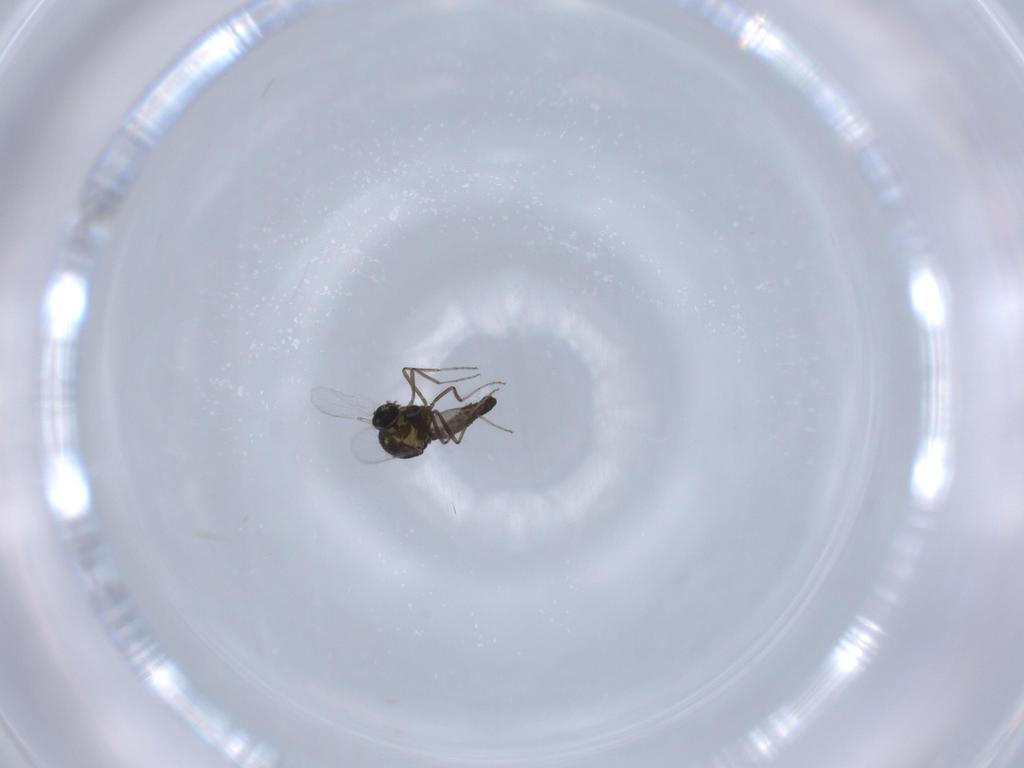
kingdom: Animalia
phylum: Arthropoda
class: Insecta
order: Diptera
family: Ceratopogonidae
